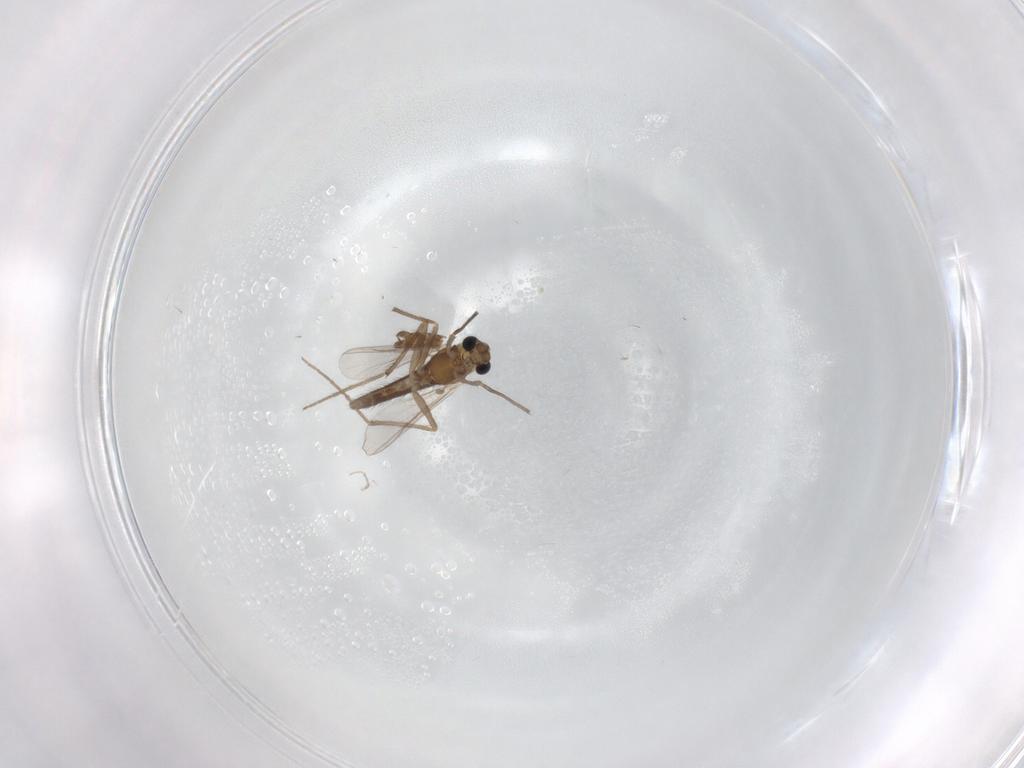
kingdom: Animalia
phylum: Arthropoda
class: Insecta
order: Diptera
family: Chironomidae
